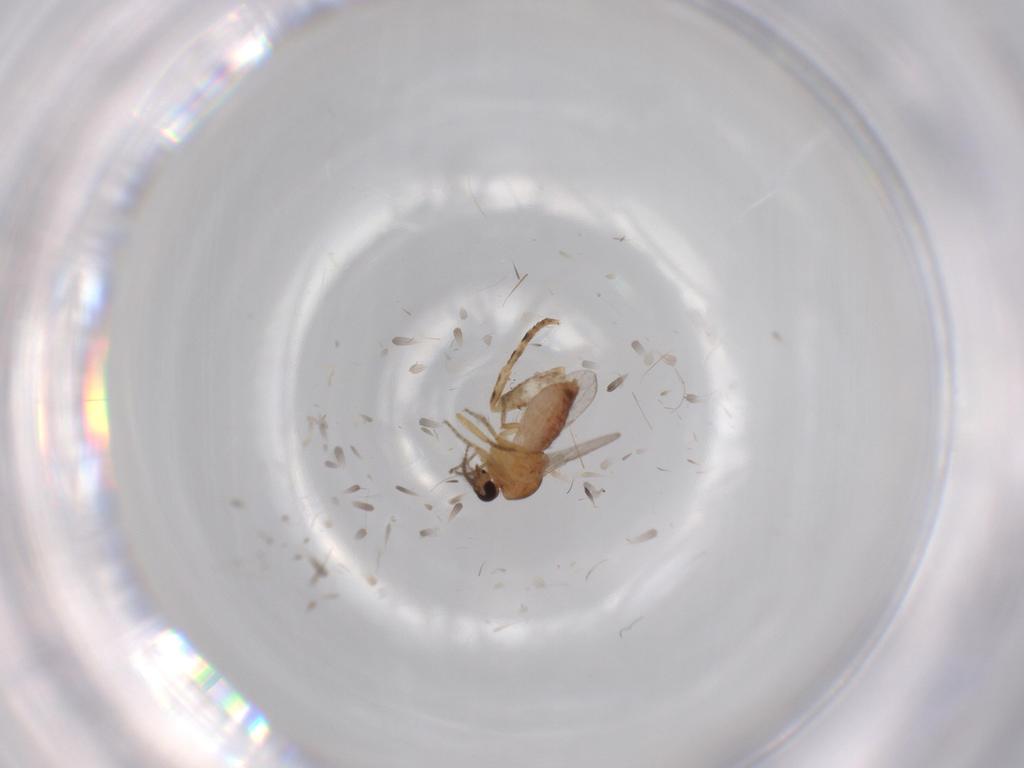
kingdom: Animalia
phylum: Arthropoda
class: Insecta
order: Diptera
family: Ceratopogonidae
